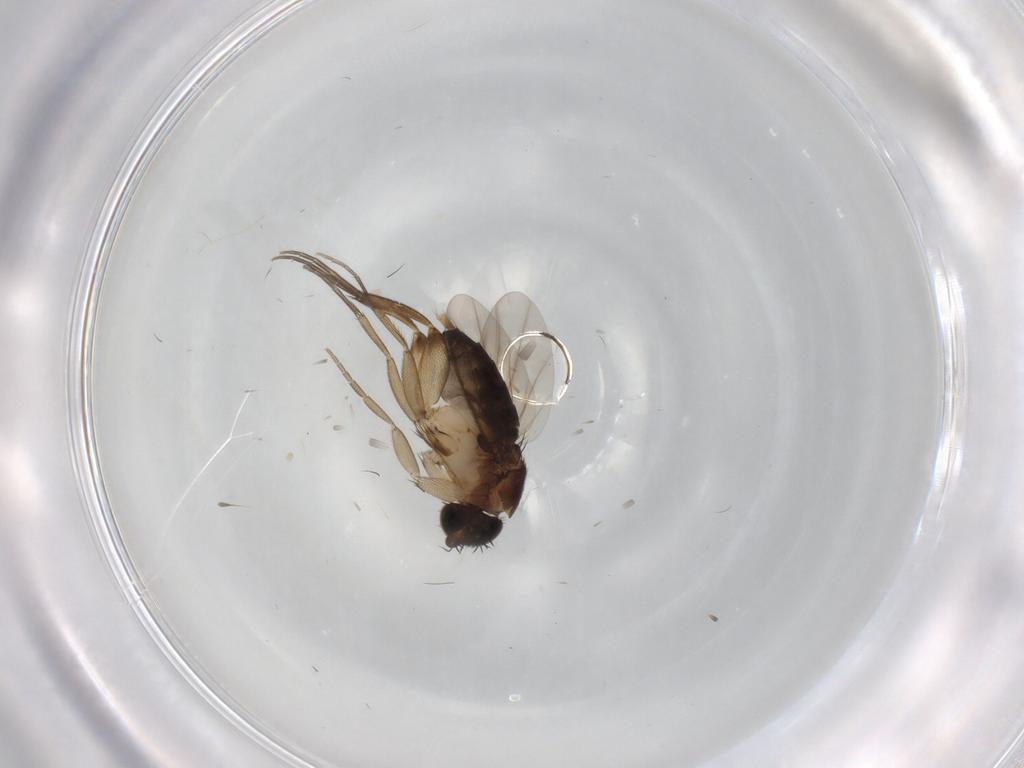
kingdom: Animalia
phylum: Arthropoda
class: Insecta
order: Diptera
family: Phoridae
